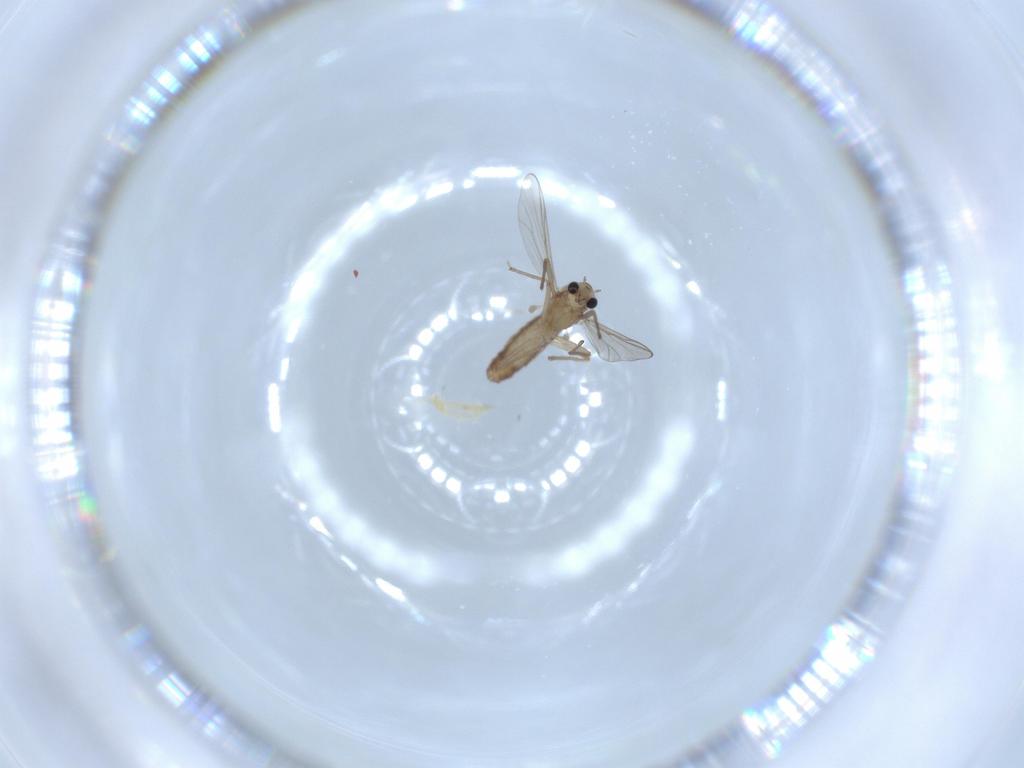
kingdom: Animalia
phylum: Arthropoda
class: Insecta
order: Diptera
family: Chironomidae
